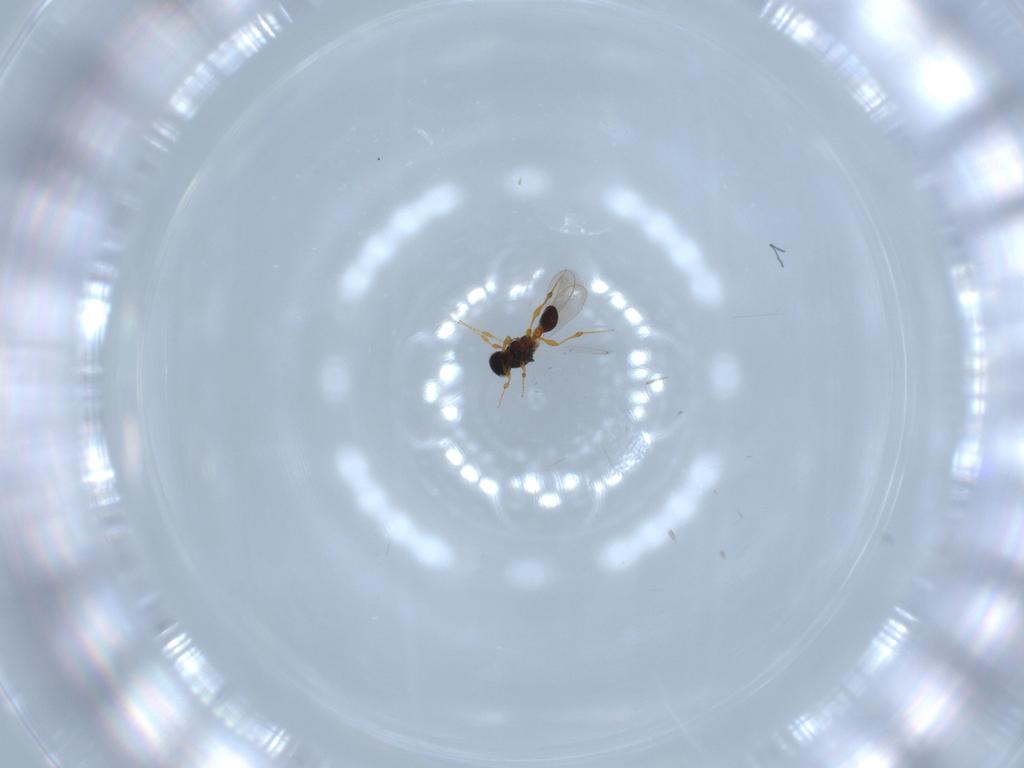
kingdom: Animalia
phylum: Arthropoda
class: Insecta
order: Hymenoptera
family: Platygastridae
